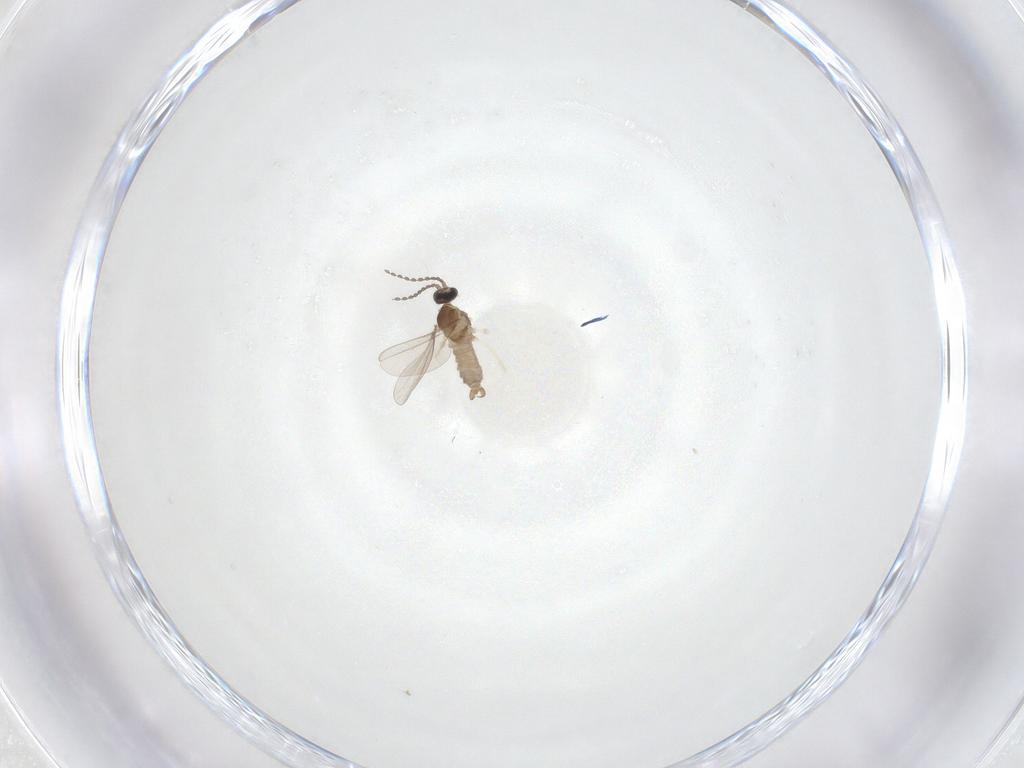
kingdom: Animalia
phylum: Arthropoda
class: Insecta
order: Diptera
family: Cecidomyiidae
